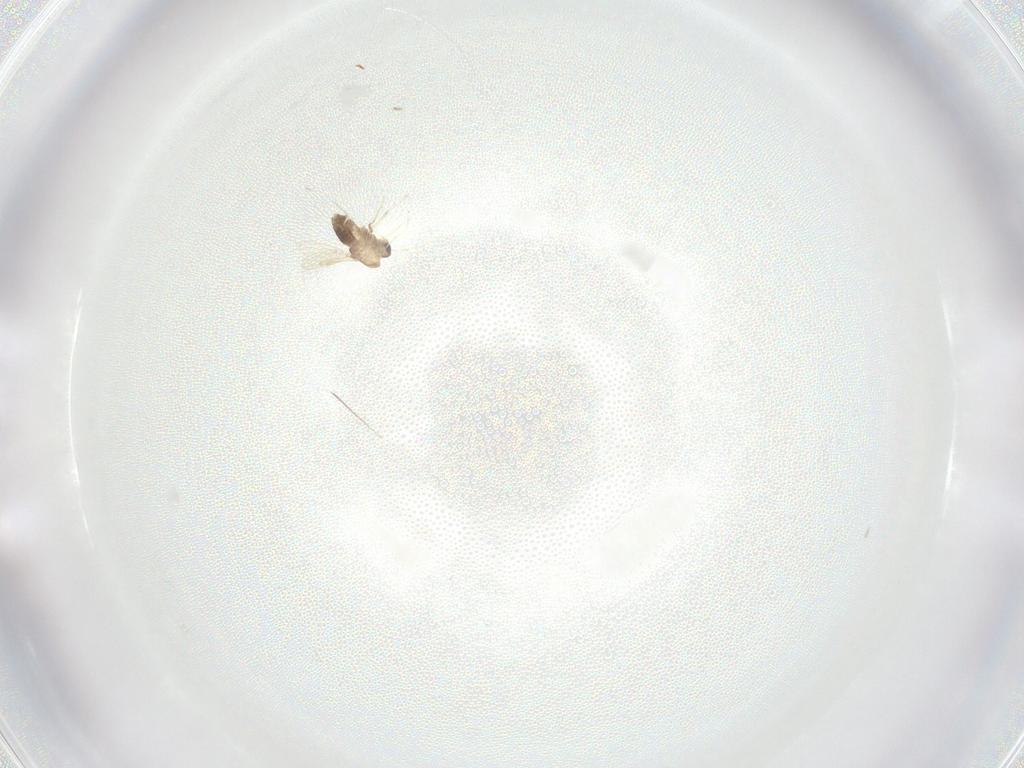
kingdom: Animalia
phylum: Arthropoda
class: Insecta
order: Diptera
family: Chironomidae
